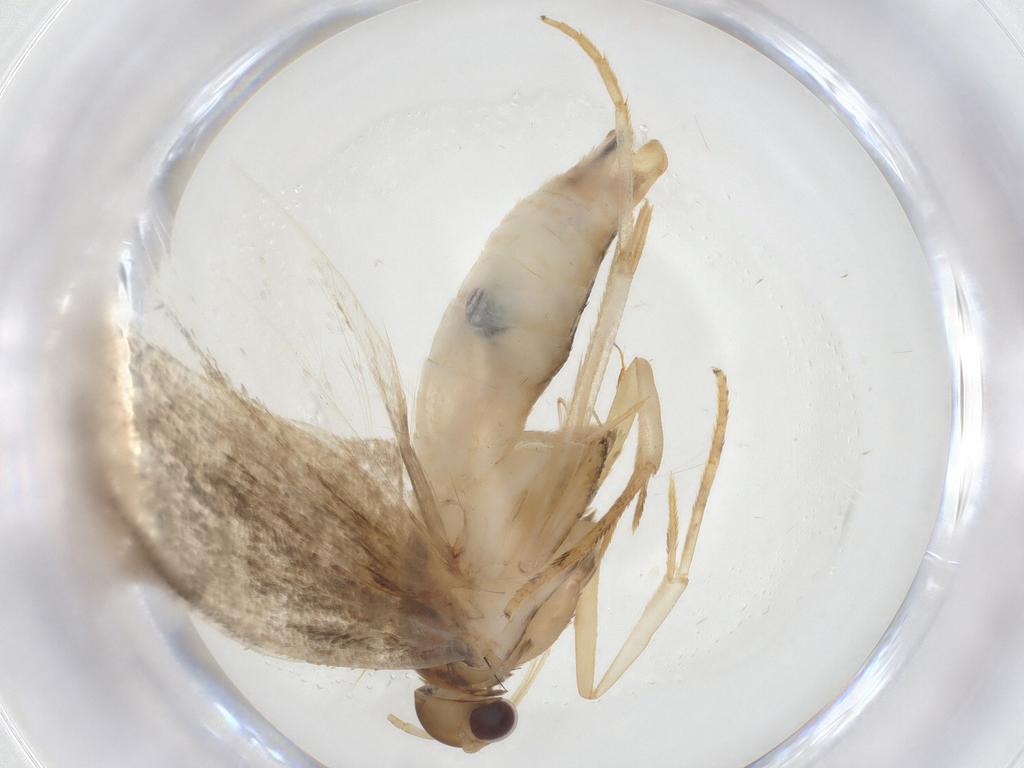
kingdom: Animalia
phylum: Arthropoda
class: Insecta
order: Lepidoptera
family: Depressariidae
